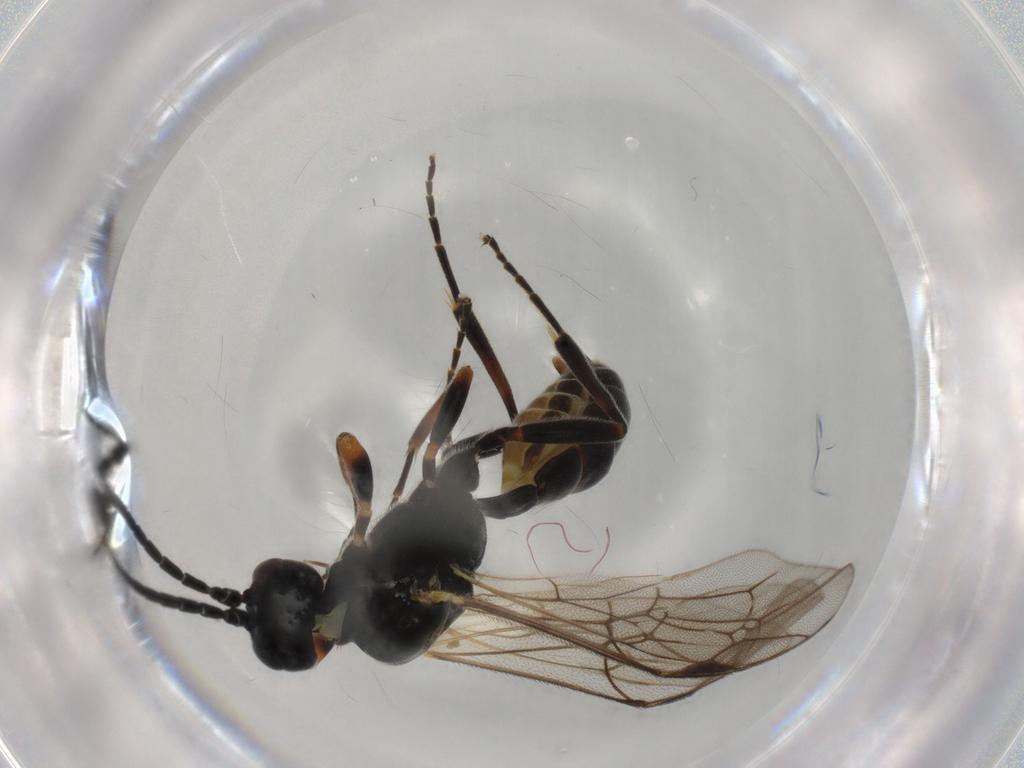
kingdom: Animalia
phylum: Arthropoda
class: Insecta
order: Hymenoptera
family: Ichneumonidae
